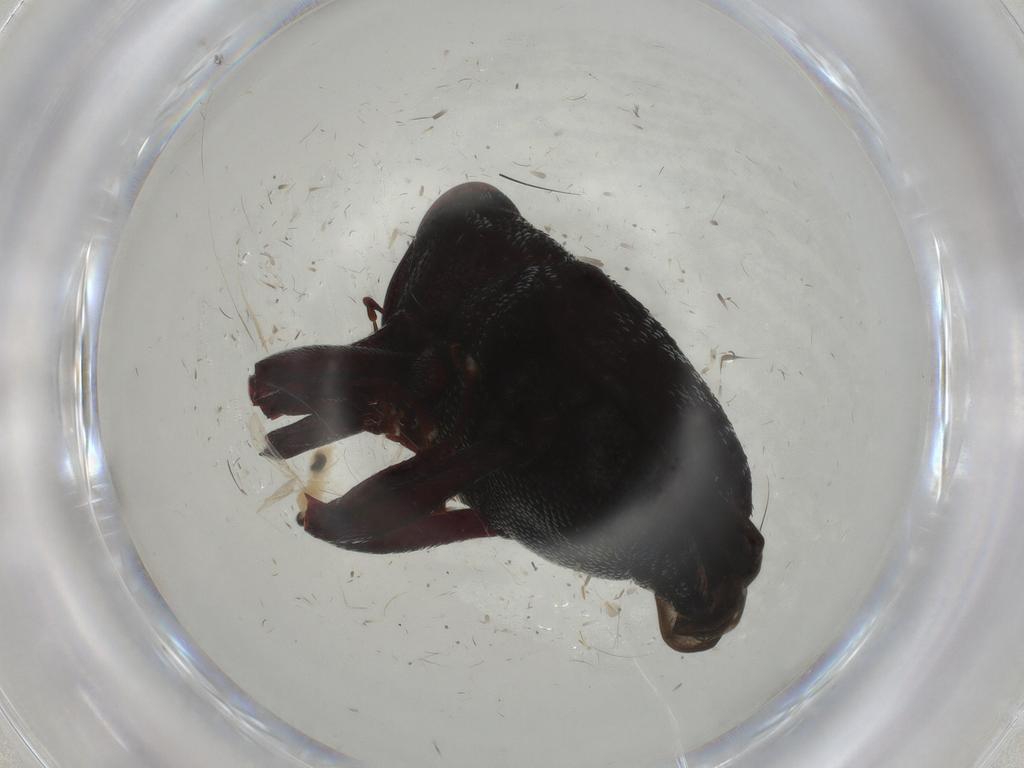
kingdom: Animalia
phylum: Arthropoda
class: Insecta
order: Coleoptera
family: Curculionidae
